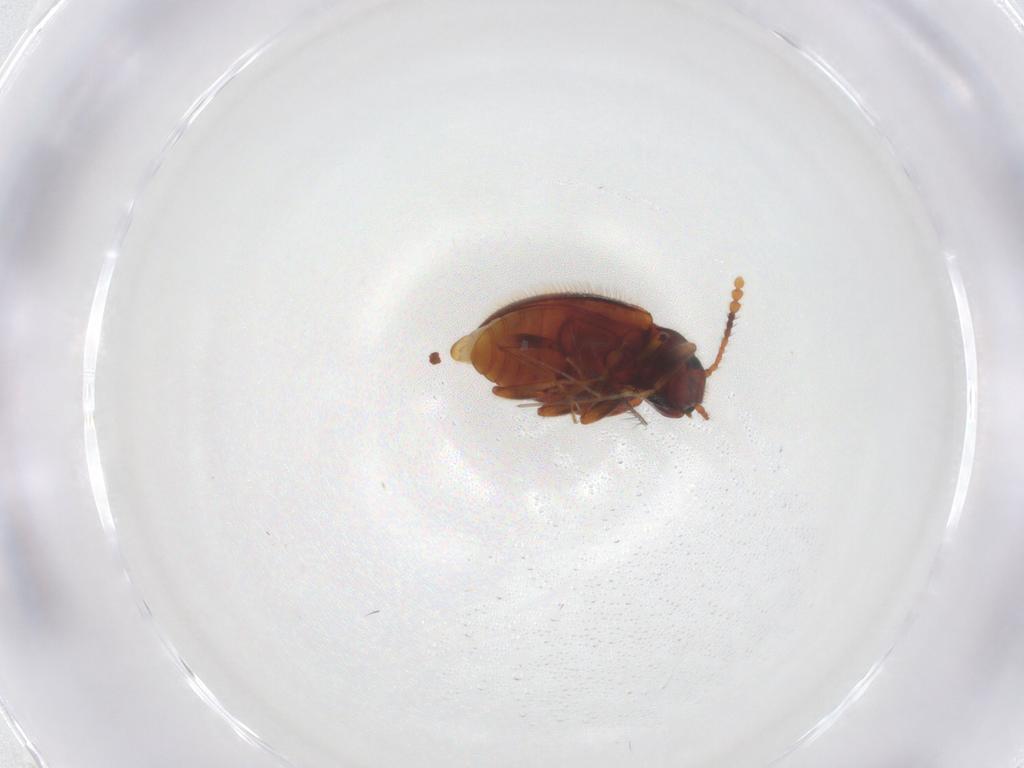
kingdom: Animalia
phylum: Arthropoda
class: Insecta
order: Coleoptera
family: Erotylidae
